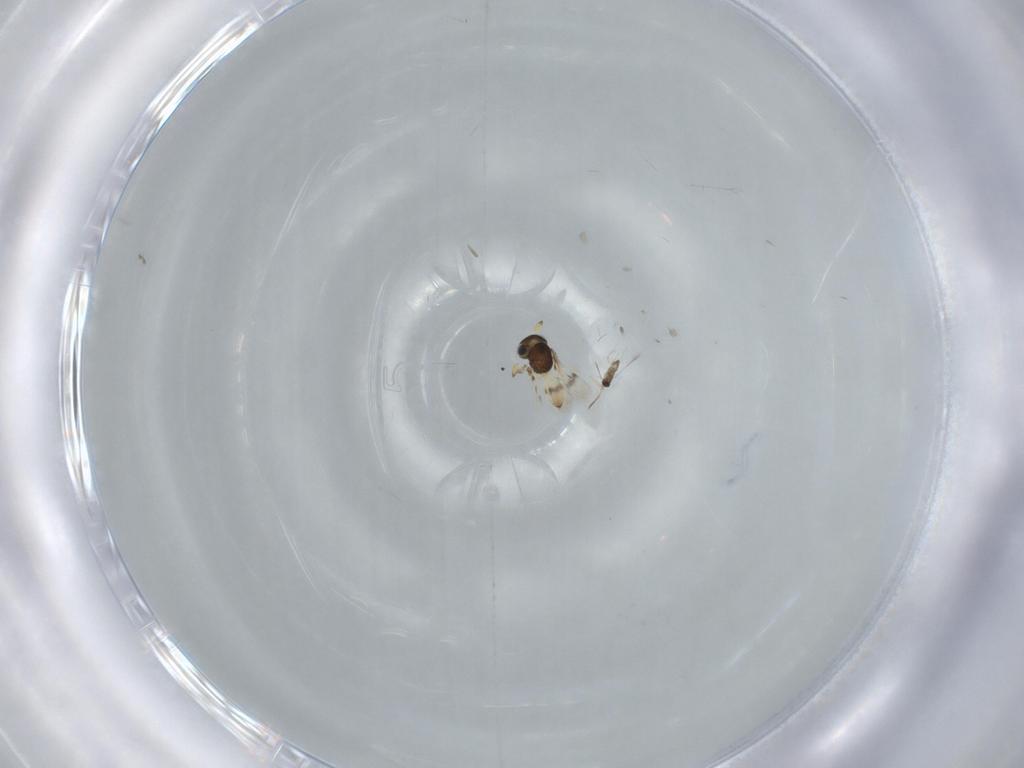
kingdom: Animalia
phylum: Arthropoda
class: Insecta
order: Hymenoptera
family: Scelionidae
